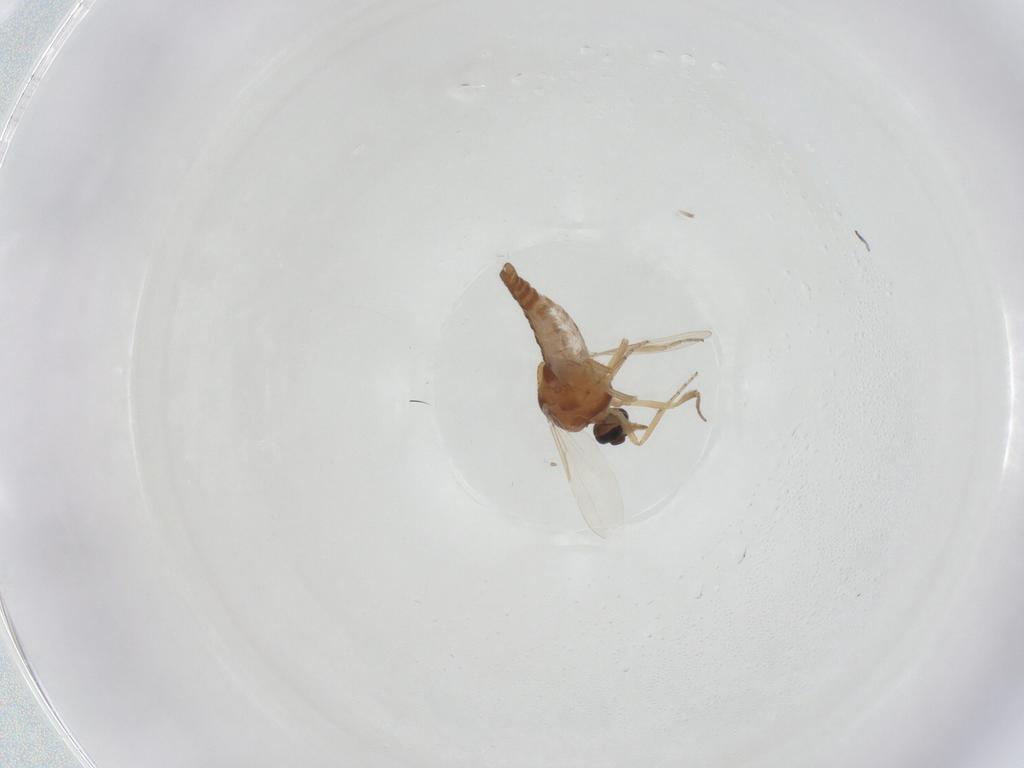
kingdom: Animalia
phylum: Arthropoda
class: Insecta
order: Diptera
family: Ceratopogonidae
